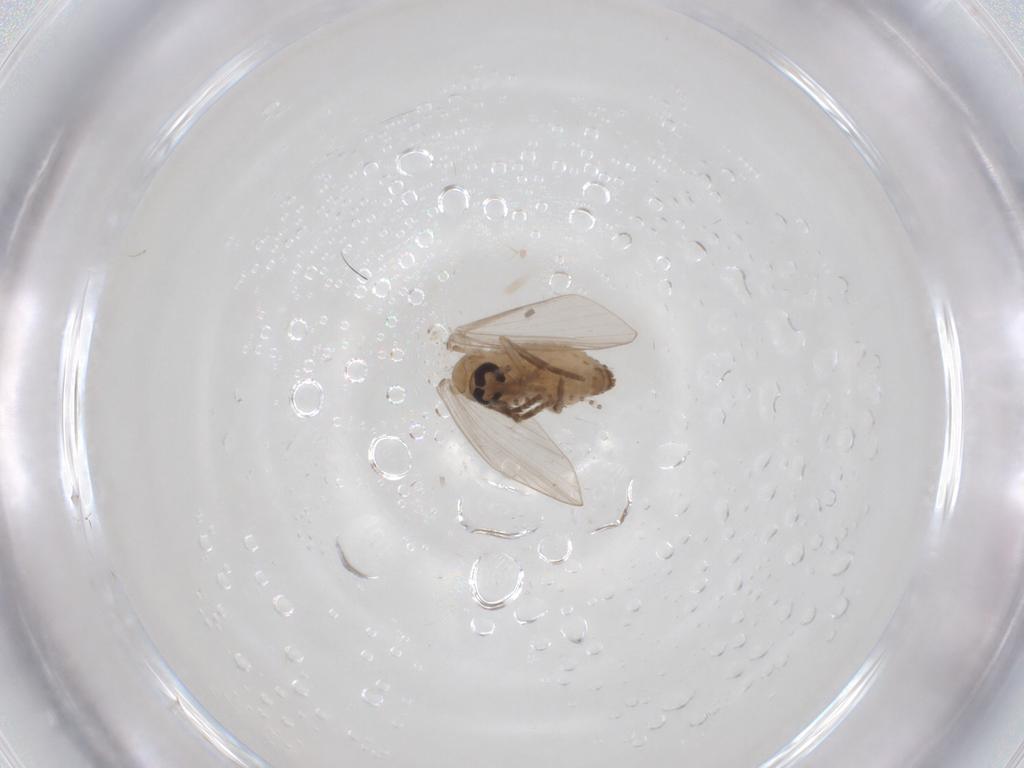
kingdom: Animalia
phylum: Arthropoda
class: Insecta
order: Diptera
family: Psychodidae
